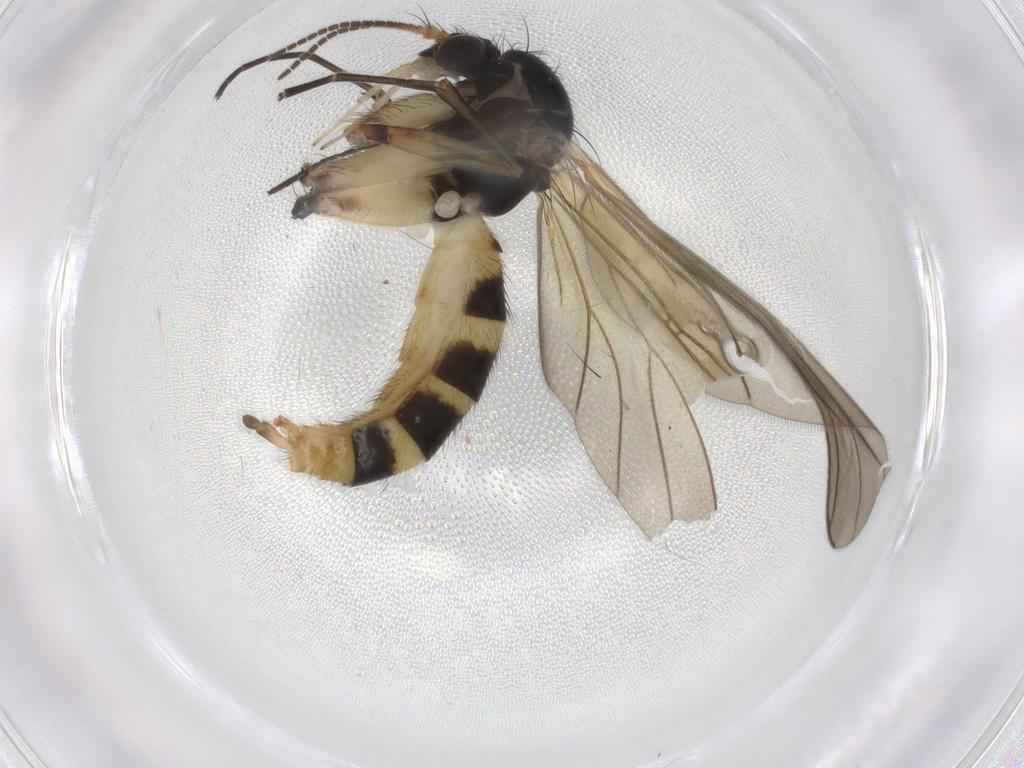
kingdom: Animalia
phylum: Arthropoda
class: Insecta
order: Diptera
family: Mycetophilidae
